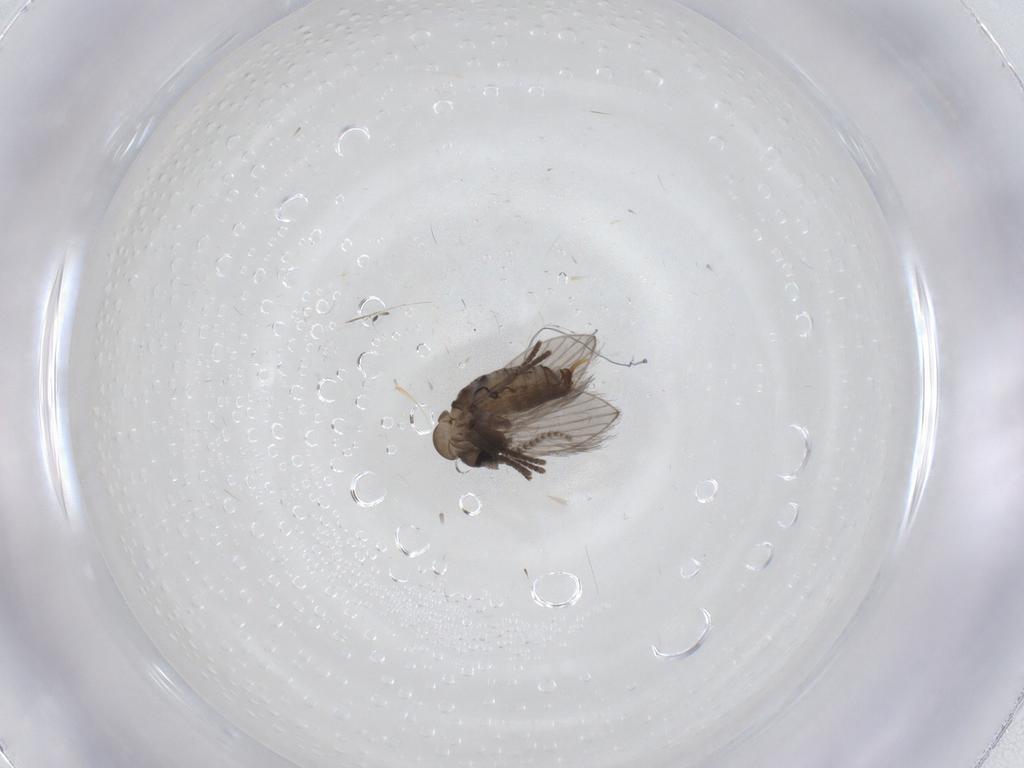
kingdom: Animalia
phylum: Arthropoda
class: Insecta
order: Diptera
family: Psychodidae
